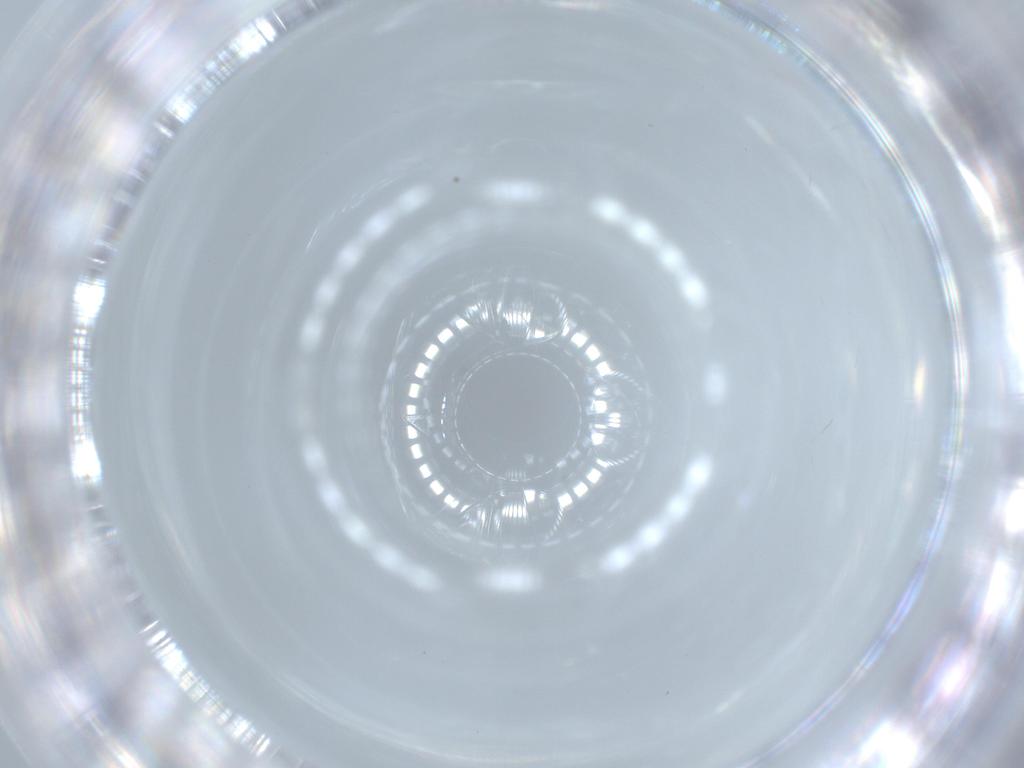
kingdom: Animalia
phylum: Arthropoda
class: Insecta
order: Diptera
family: Cecidomyiidae
